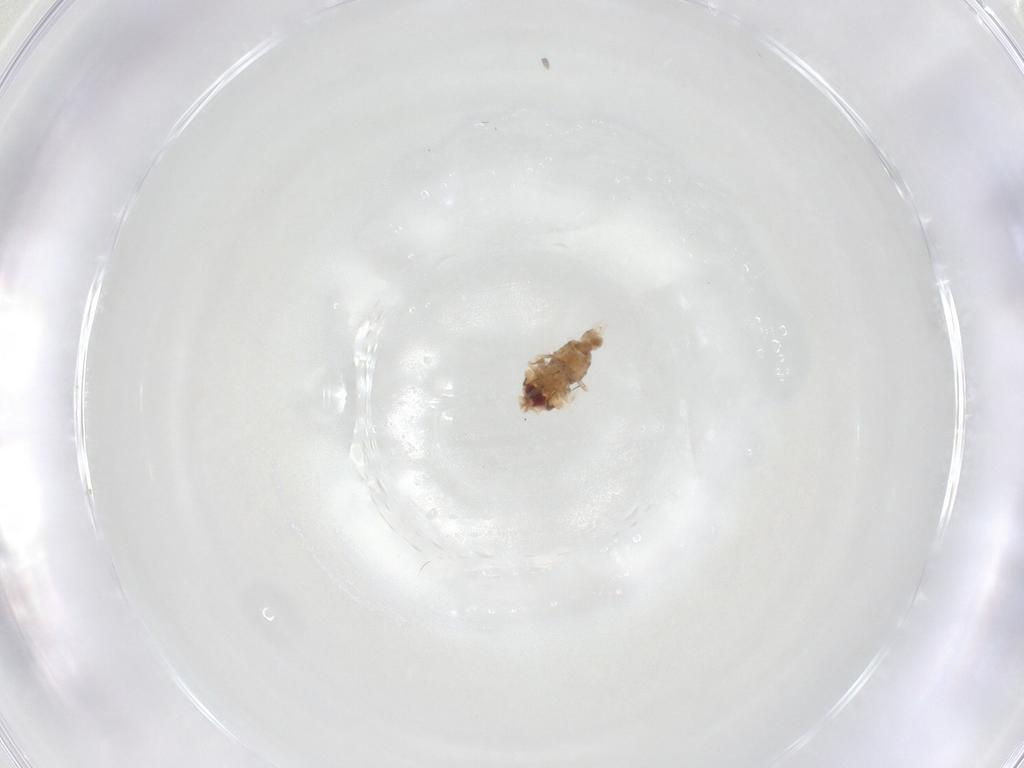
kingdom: Animalia
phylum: Arthropoda
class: Insecta
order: Hemiptera
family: Aleyrodidae
